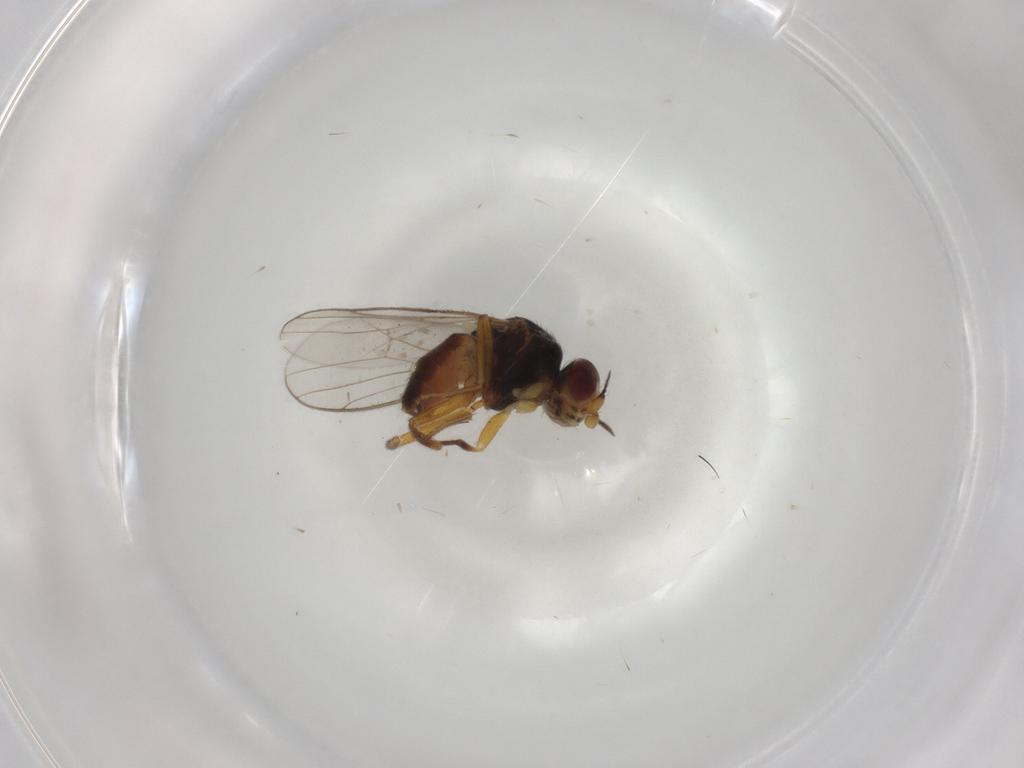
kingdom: Animalia
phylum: Arthropoda
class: Insecta
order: Diptera
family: Chloropidae
